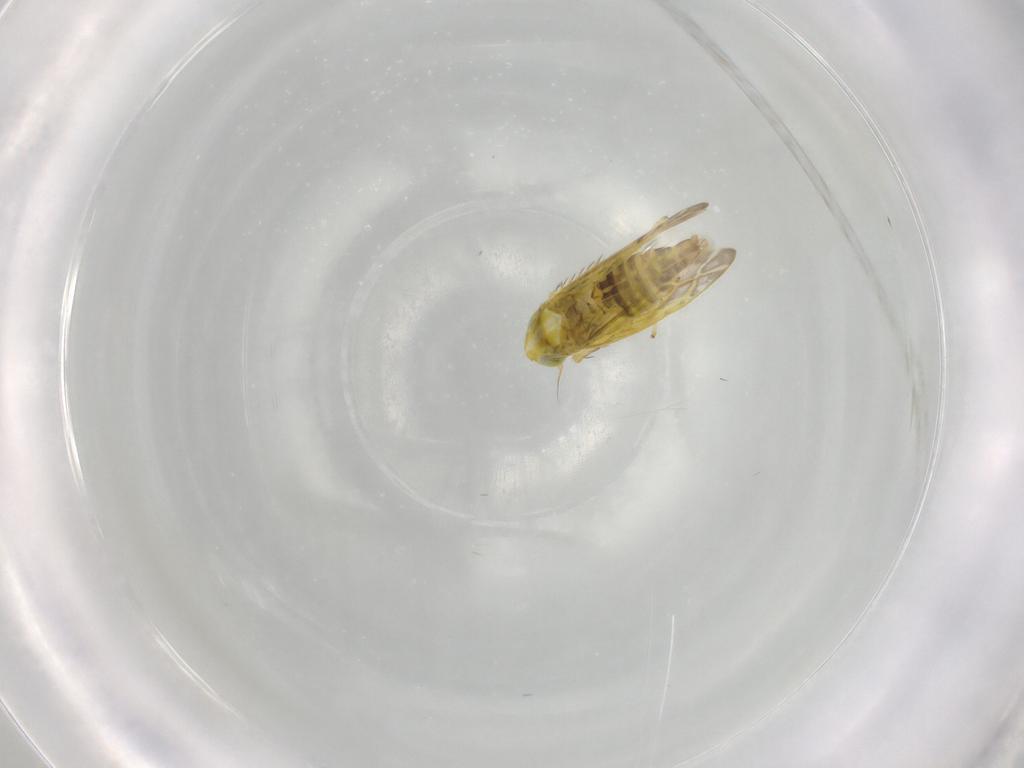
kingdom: Animalia
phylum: Arthropoda
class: Insecta
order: Hemiptera
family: Cicadellidae
